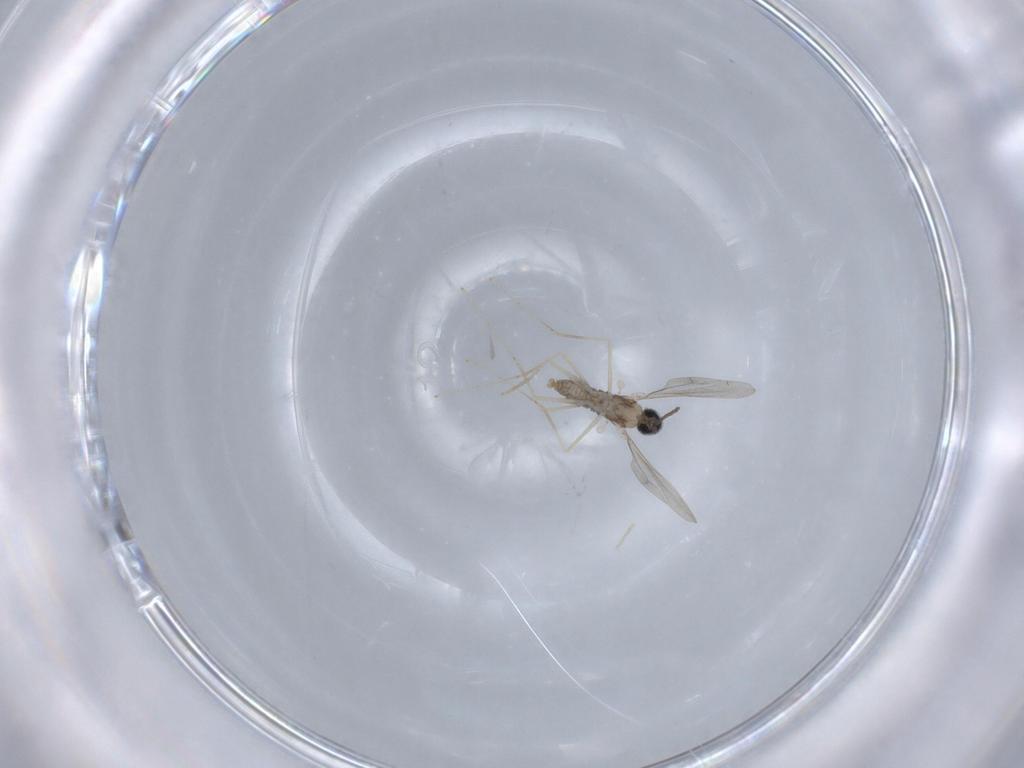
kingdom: Animalia
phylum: Arthropoda
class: Insecta
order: Diptera
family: Cecidomyiidae
